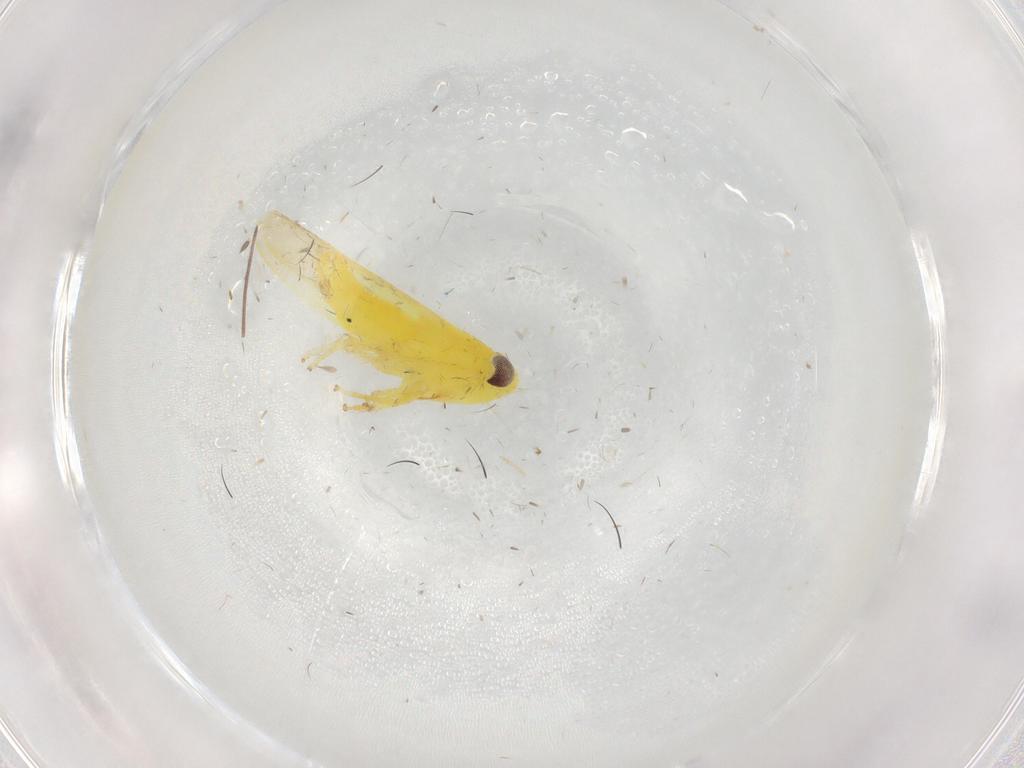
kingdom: Animalia
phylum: Arthropoda
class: Insecta
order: Hemiptera
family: Cicadellidae
